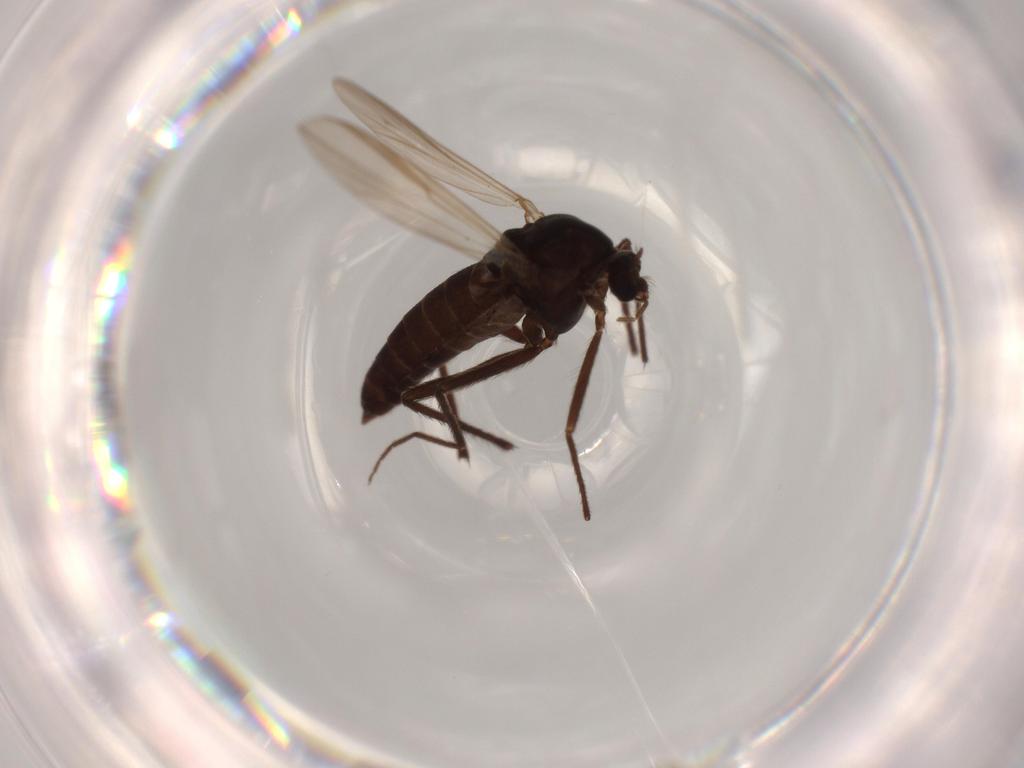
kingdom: Animalia
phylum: Arthropoda
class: Insecta
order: Diptera
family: Hybotidae
